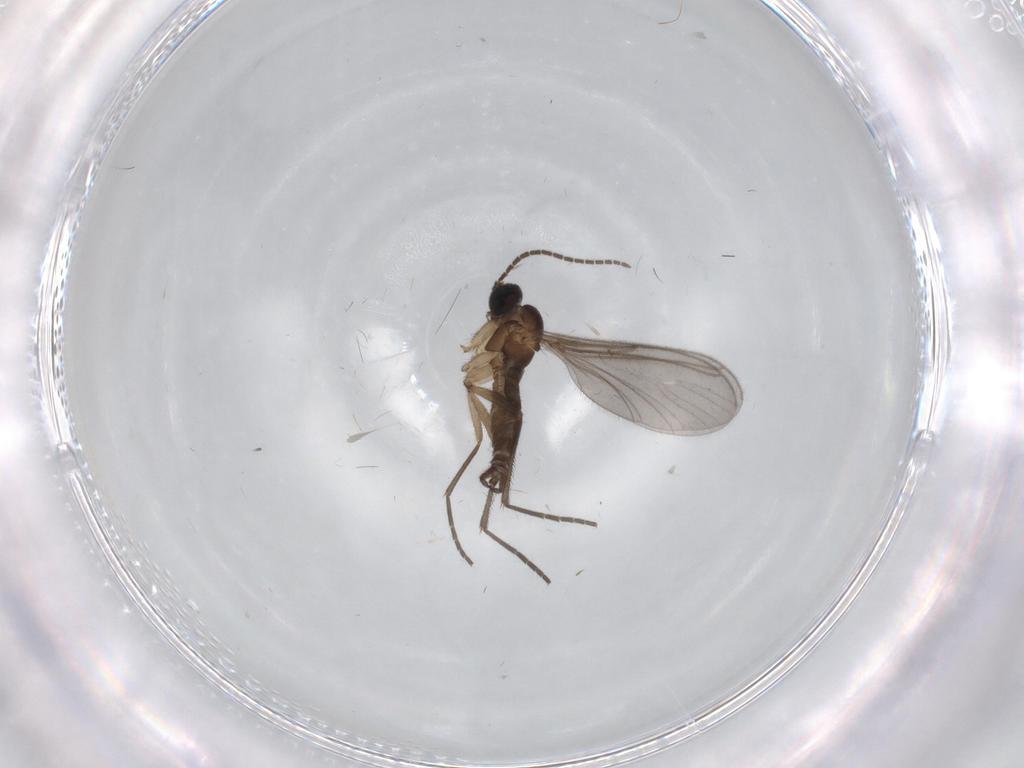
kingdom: Animalia
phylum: Arthropoda
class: Insecta
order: Diptera
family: Sciaridae
